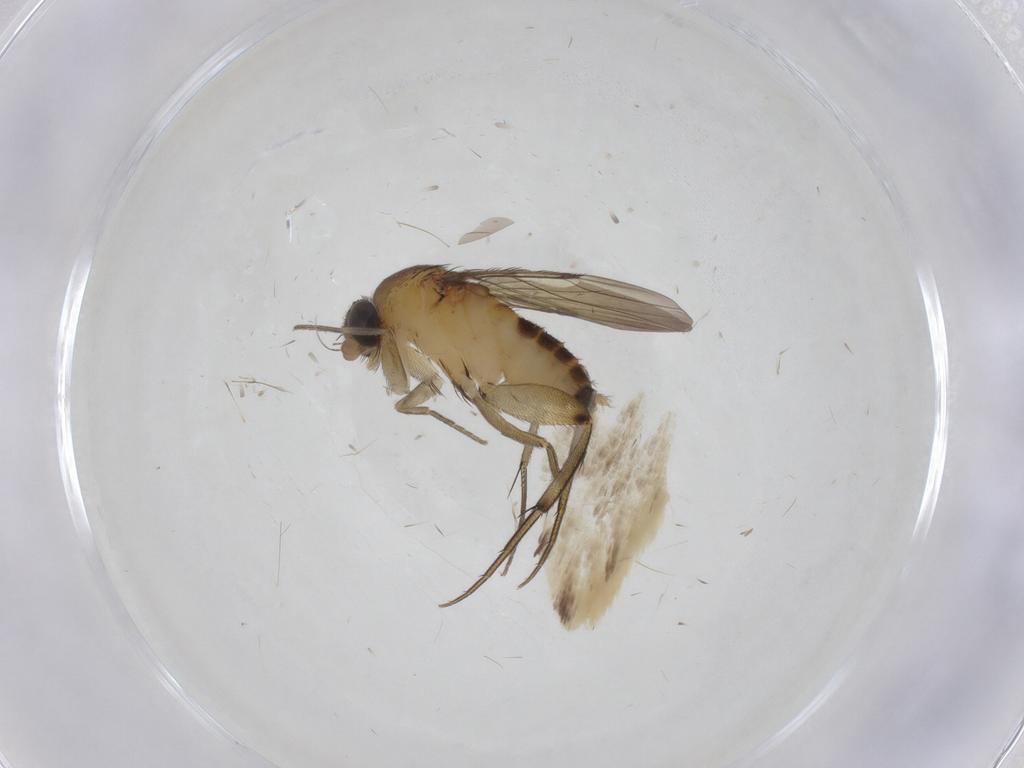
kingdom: Animalia
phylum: Arthropoda
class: Insecta
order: Diptera
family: Phoridae
